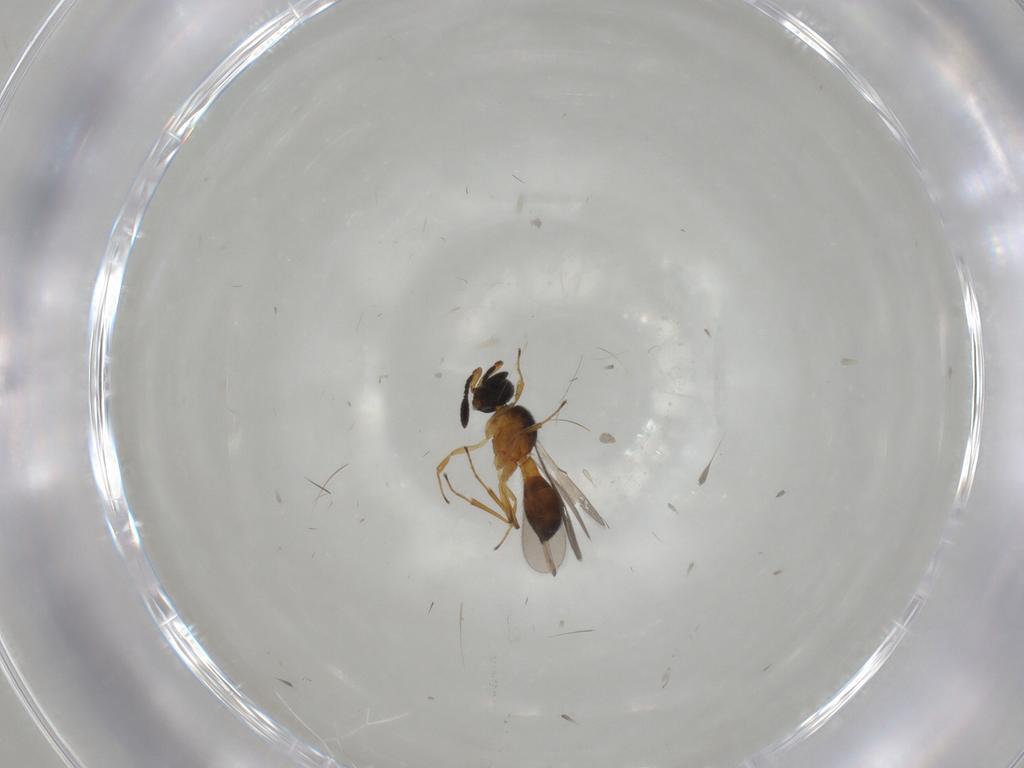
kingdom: Animalia
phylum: Arthropoda
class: Insecta
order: Hymenoptera
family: Scelionidae
